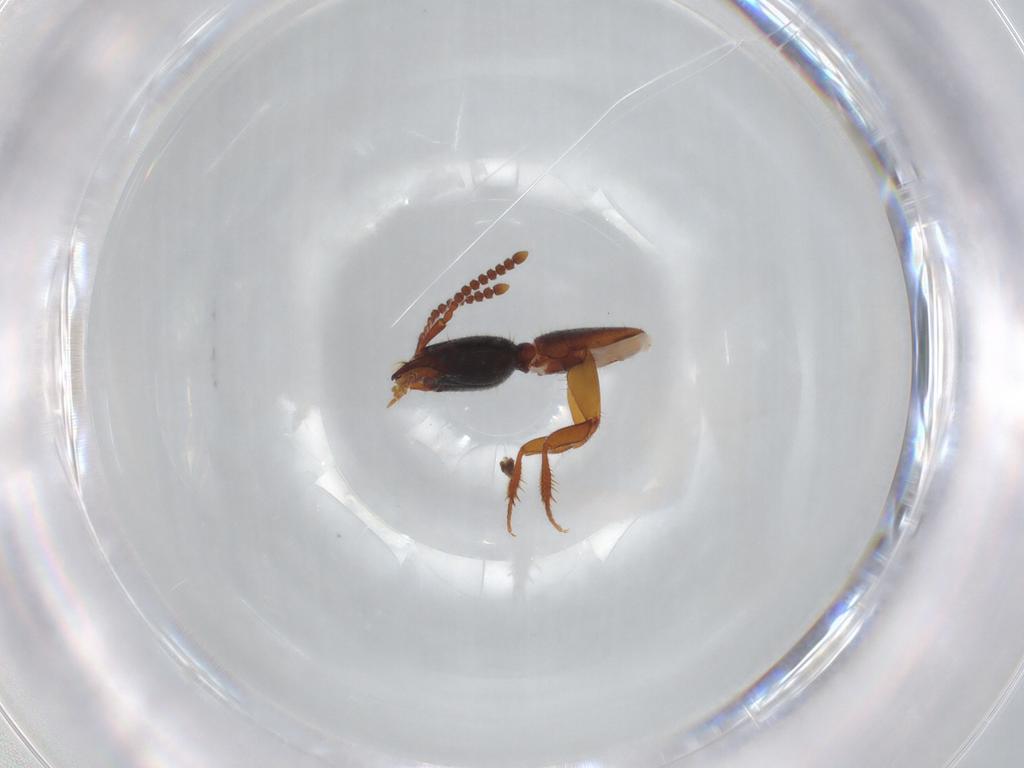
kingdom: Animalia
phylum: Arthropoda
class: Insecta
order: Coleoptera
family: Staphylinidae
